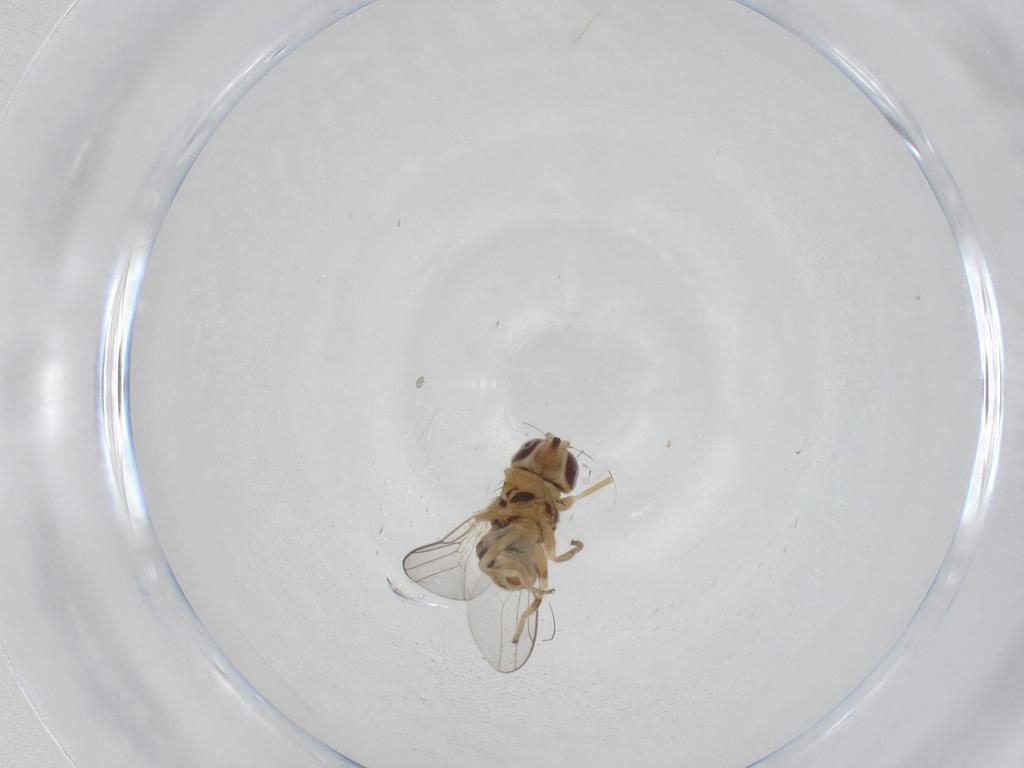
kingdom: Animalia
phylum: Arthropoda
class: Insecta
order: Diptera
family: Chloropidae
